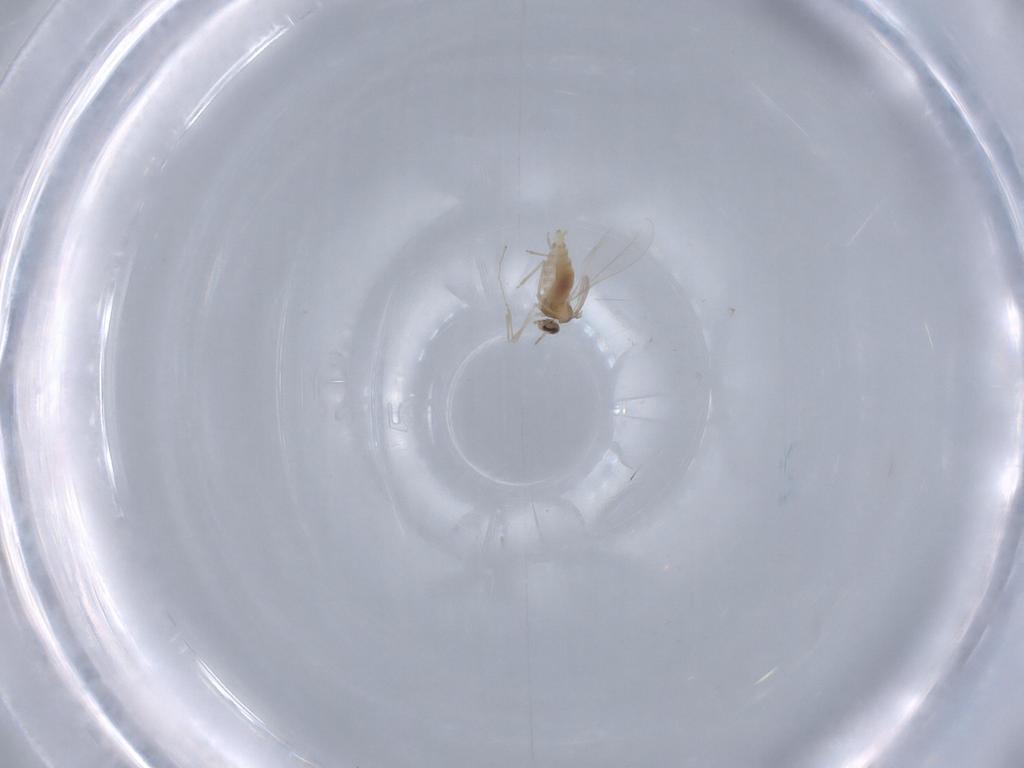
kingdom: Animalia
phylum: Arthropoda
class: Insecta
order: Diptera
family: Cecidomyiidae
